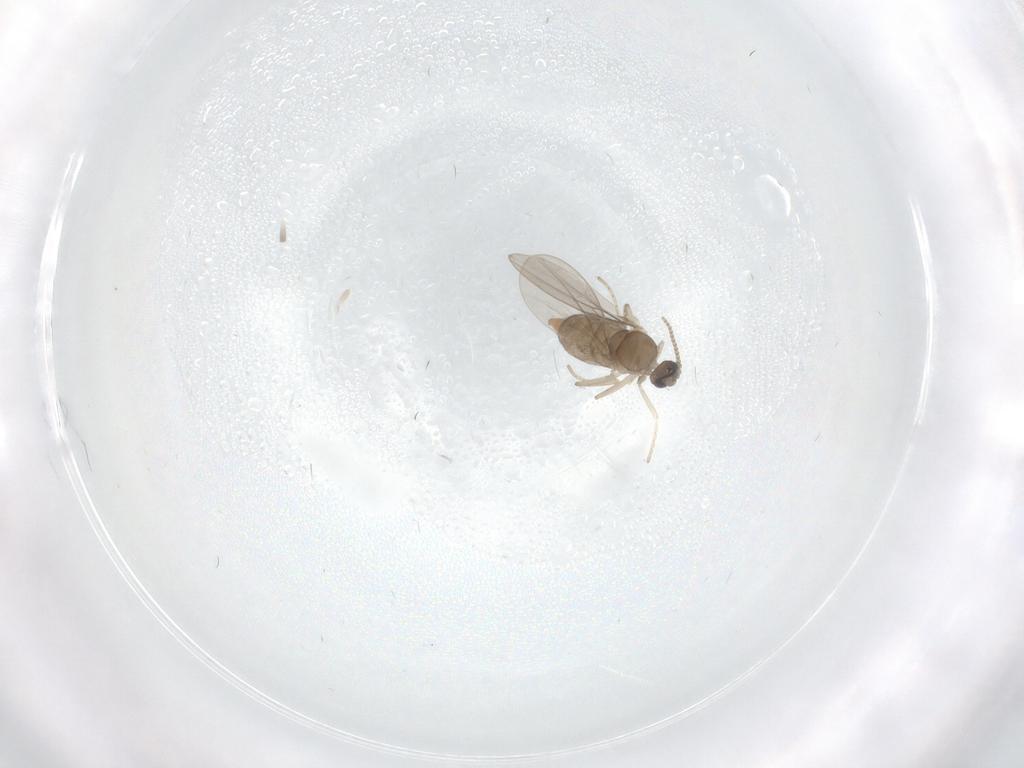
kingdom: Animalia
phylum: Arthropoda
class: Insecta
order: Diptera
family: Cecidomyiidae
